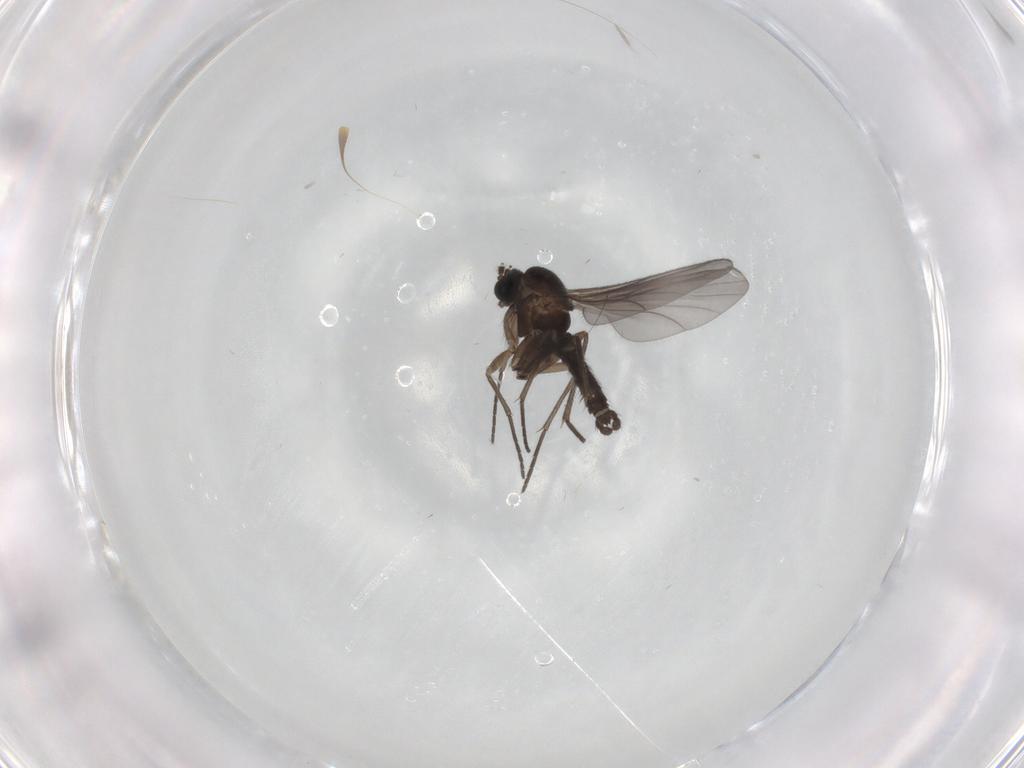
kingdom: Animalia
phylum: Arthropoda
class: Insecta
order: Diptera
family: Sciaridae
